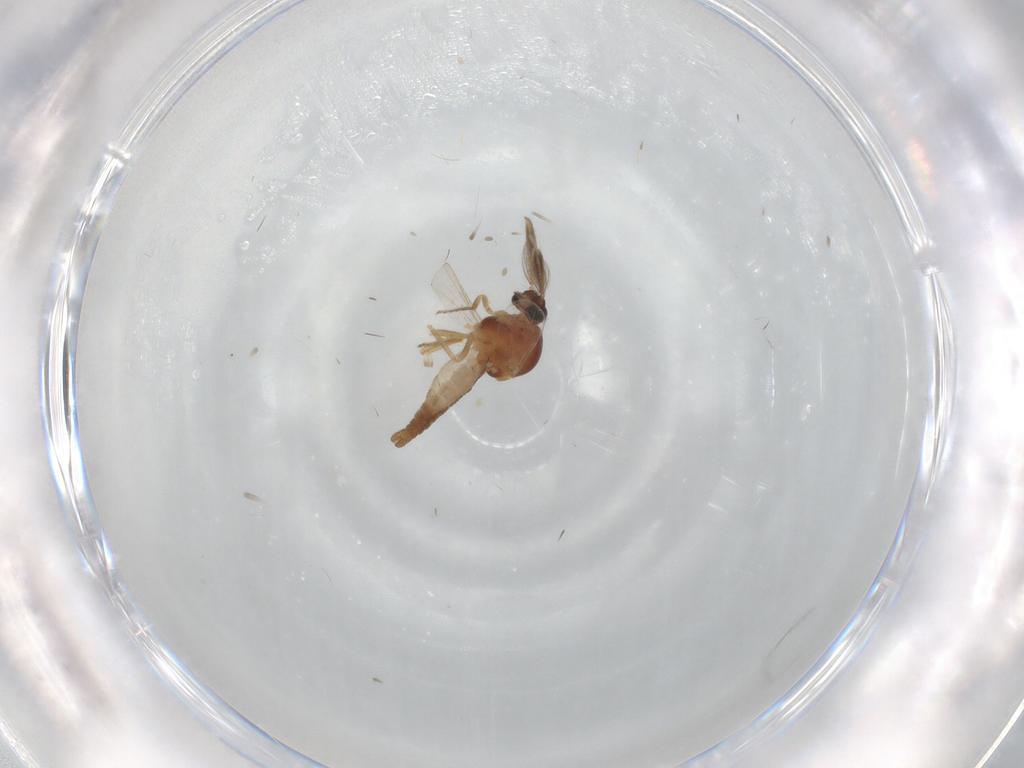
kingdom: Animalia
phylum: Arthropoda
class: Insecta
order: Diptera
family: Ceratopogonidae
